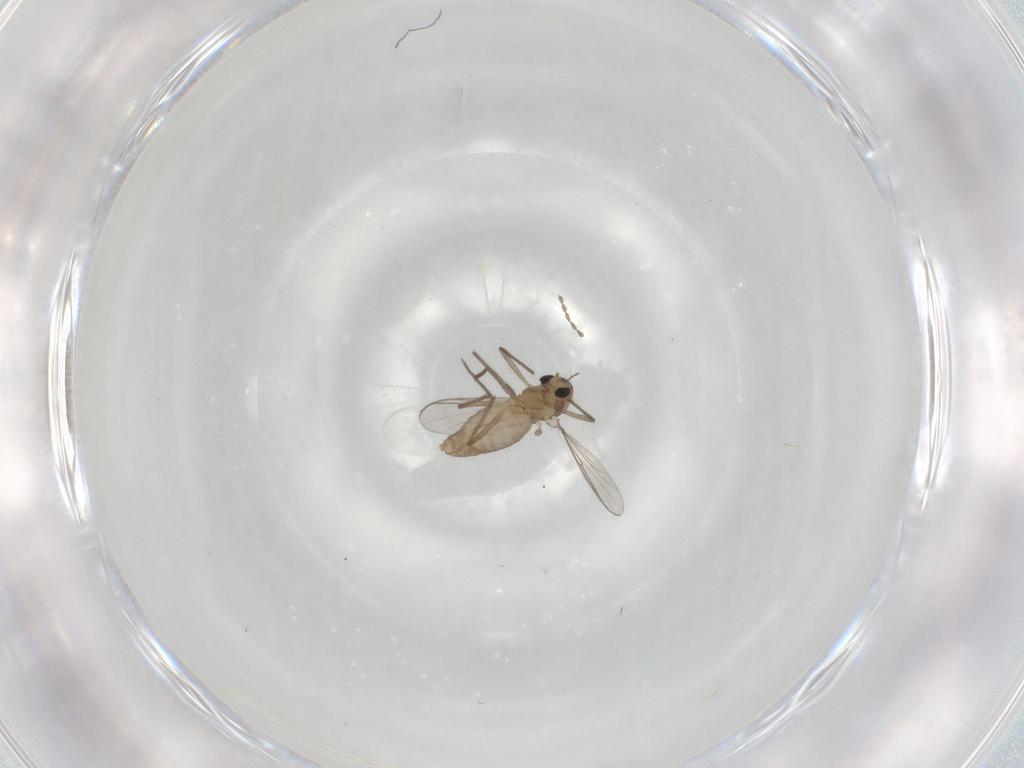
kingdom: Animalia
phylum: Arthropoda
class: Insecta
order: Diptera
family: Chironomidae
